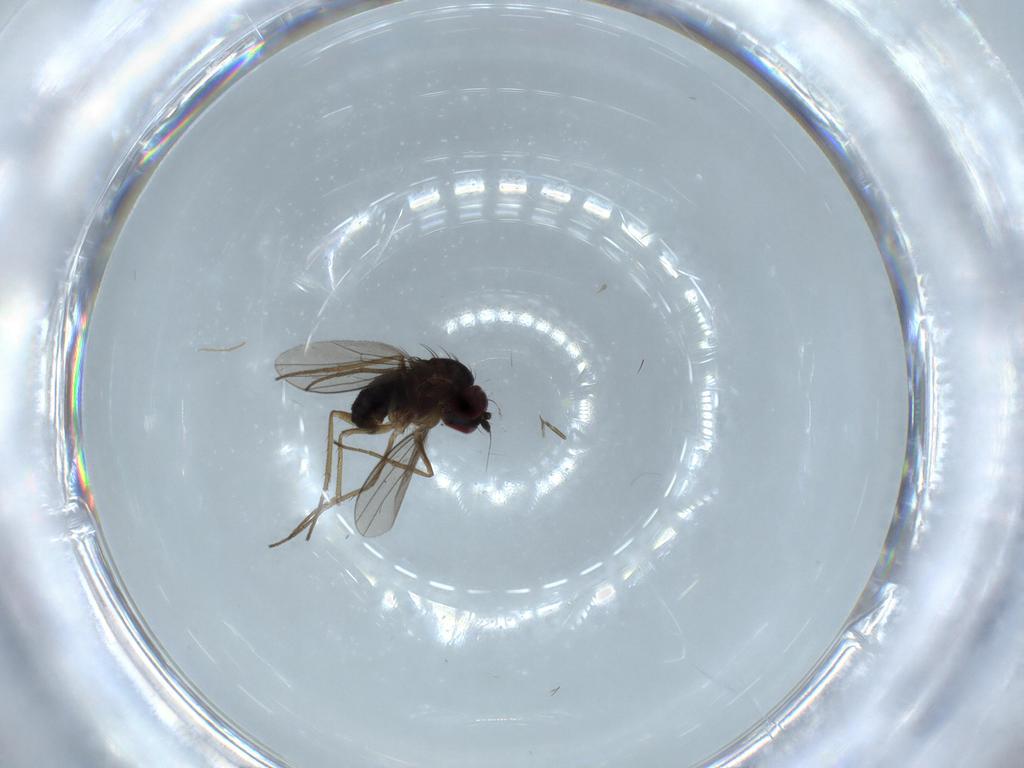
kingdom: Animalia
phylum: Arthropoda
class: Insecta
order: Diptera
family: Dolichopodidae
